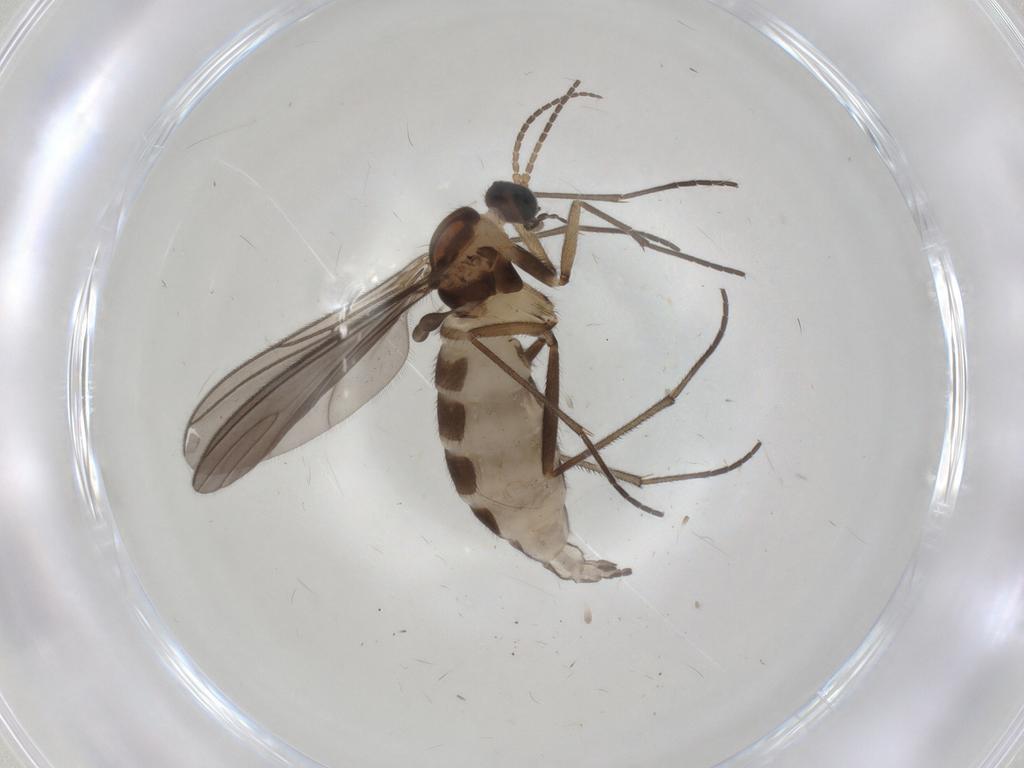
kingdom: Animalia
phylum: Arthropoda
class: Insecta
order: Diptera
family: Sciaridae
